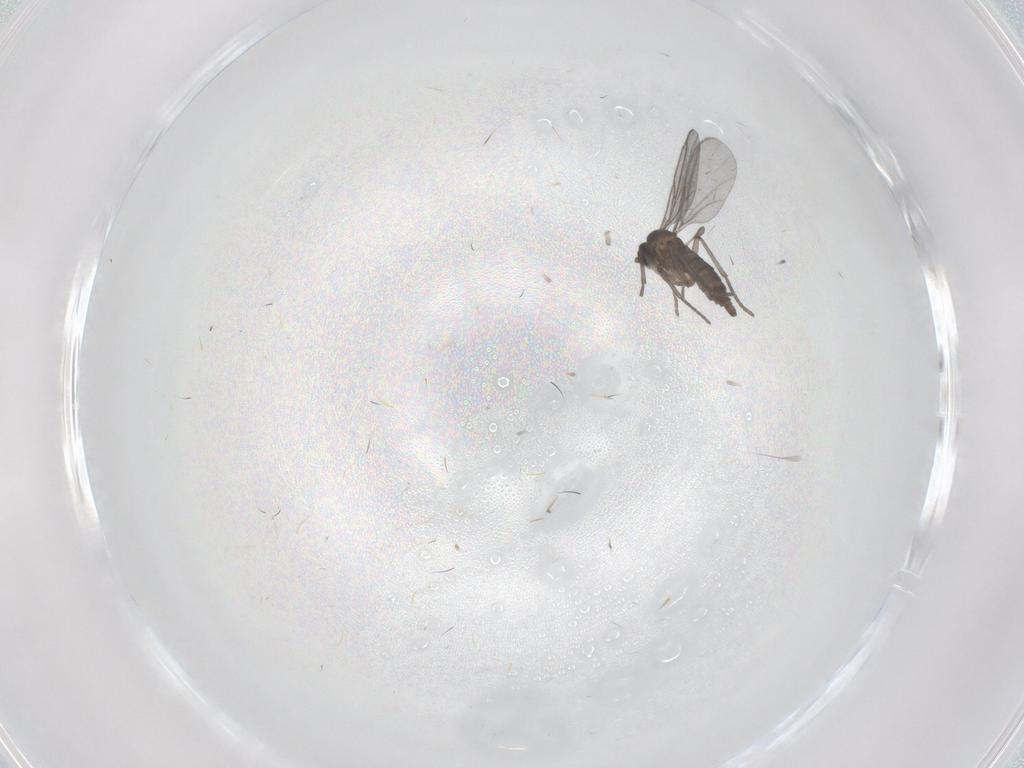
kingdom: Animalia
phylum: Arthropoda
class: Insecta
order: Diptera
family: Sciaridae
